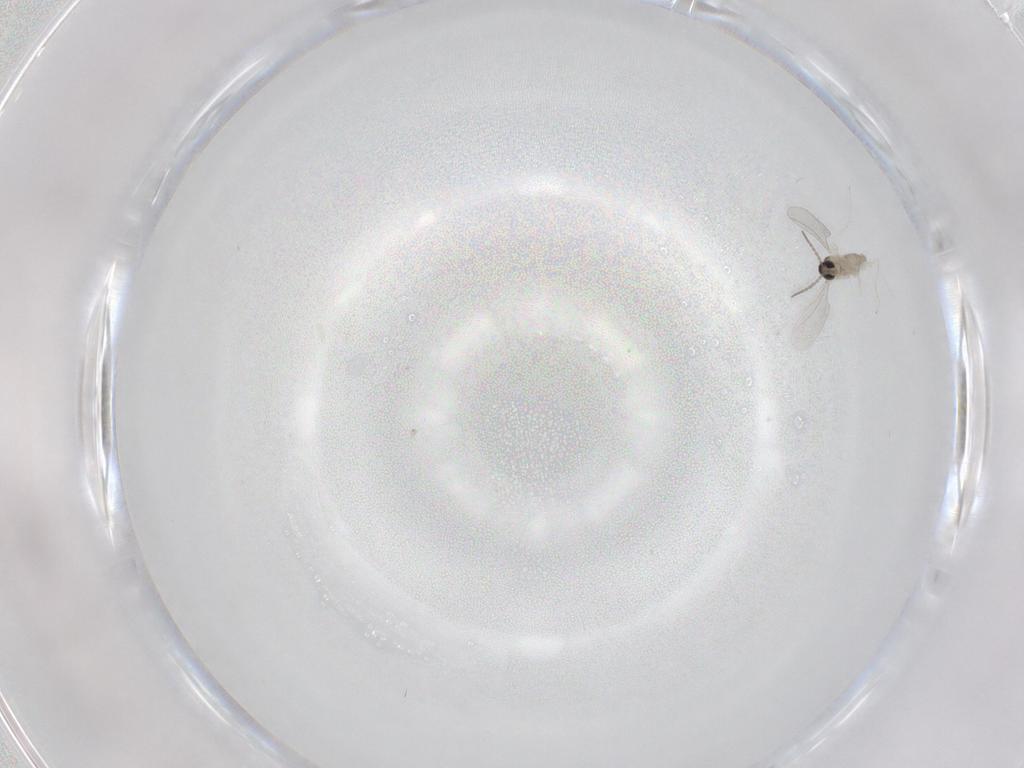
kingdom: Animalia
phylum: Arthropoda
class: Insecta
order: Diptera
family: Cecidomyiidae
